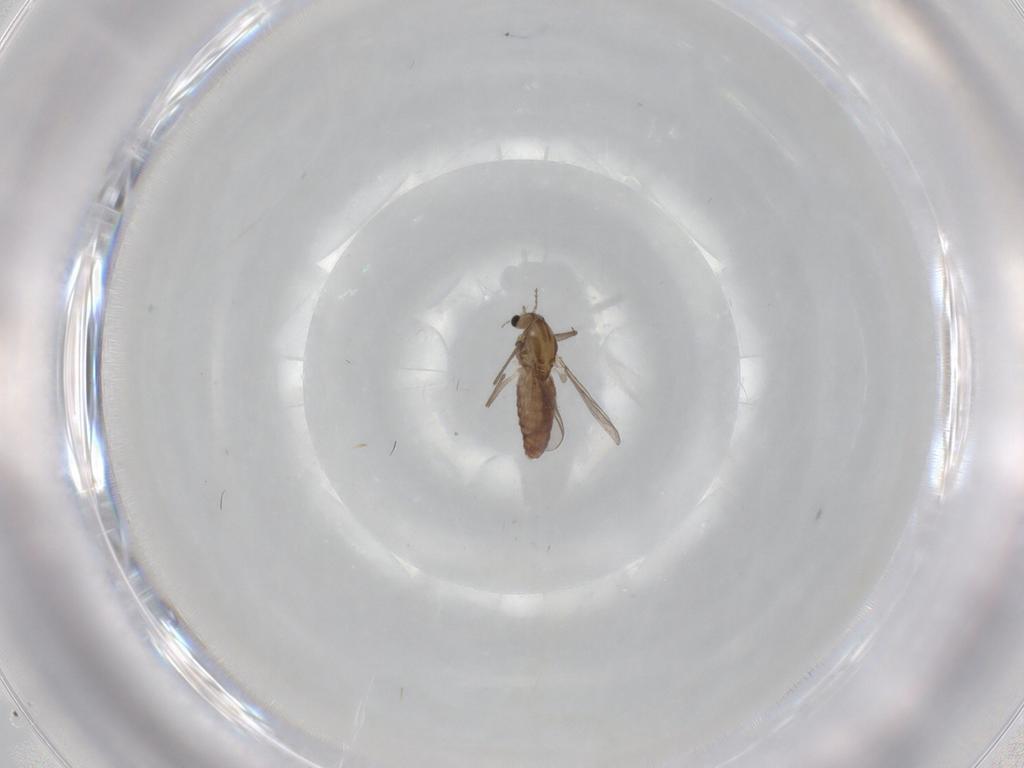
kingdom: Animalia
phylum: Arthropoda
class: Insecta
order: Diptera
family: Chironomidae
